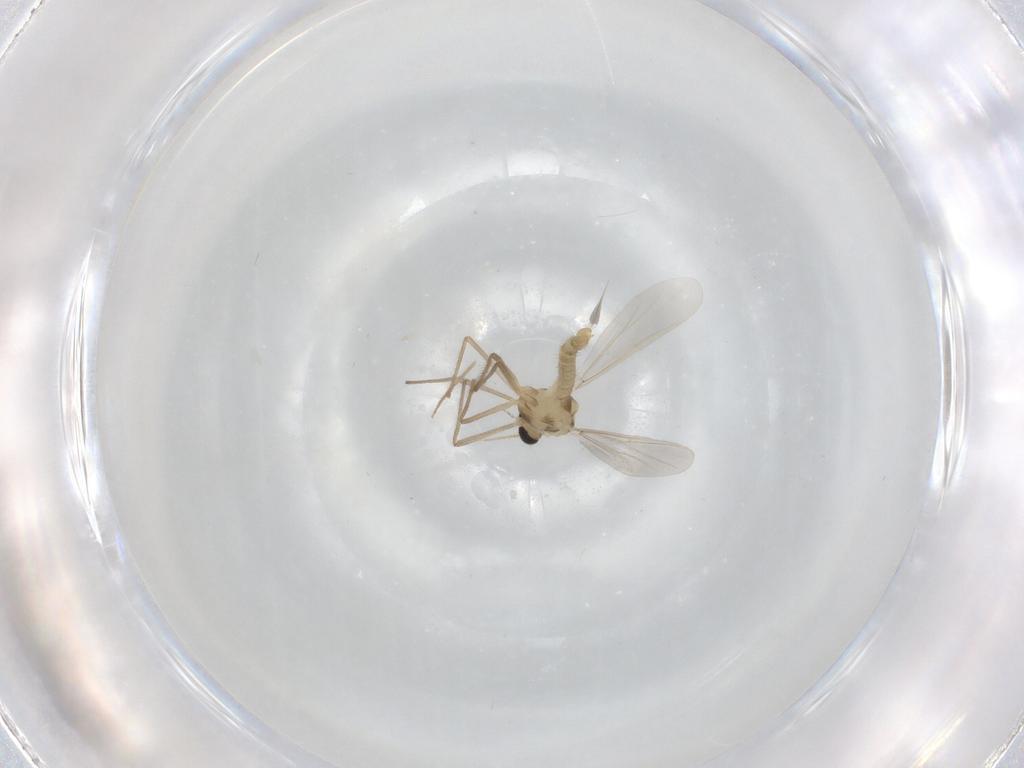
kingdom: Animalia
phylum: Arthropoda
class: Insecta
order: Diptera
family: Chironomidae
